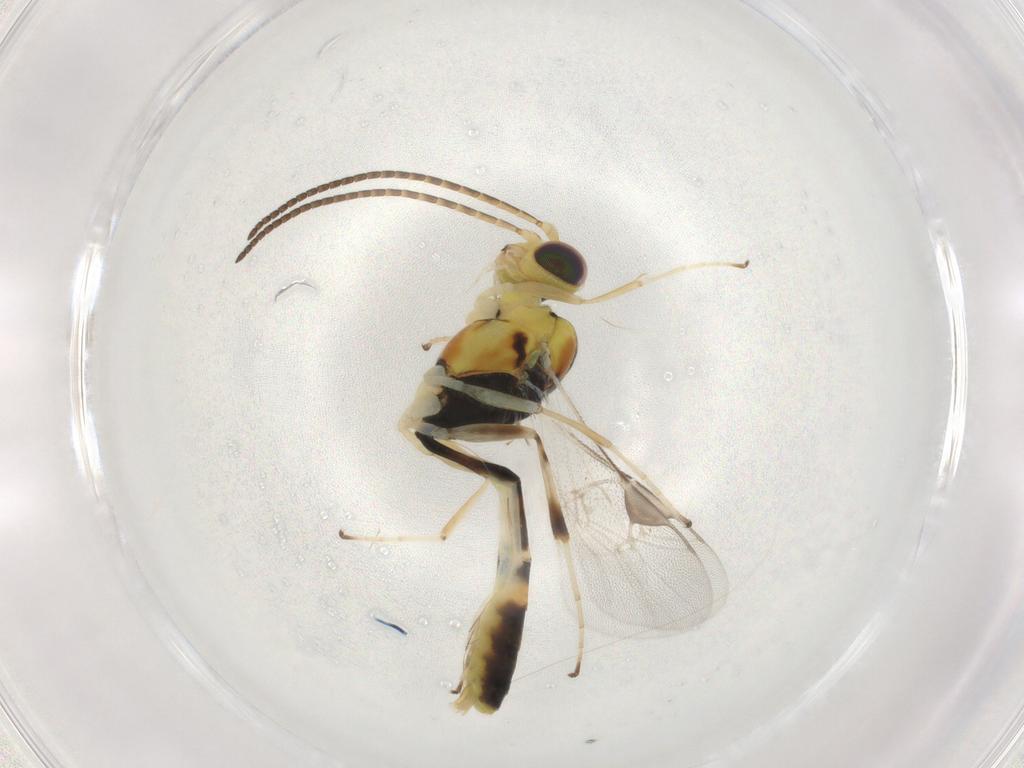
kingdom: Animalia
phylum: Arthropoda
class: Insecta
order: Hymenoptera
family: Ichneumonidae
